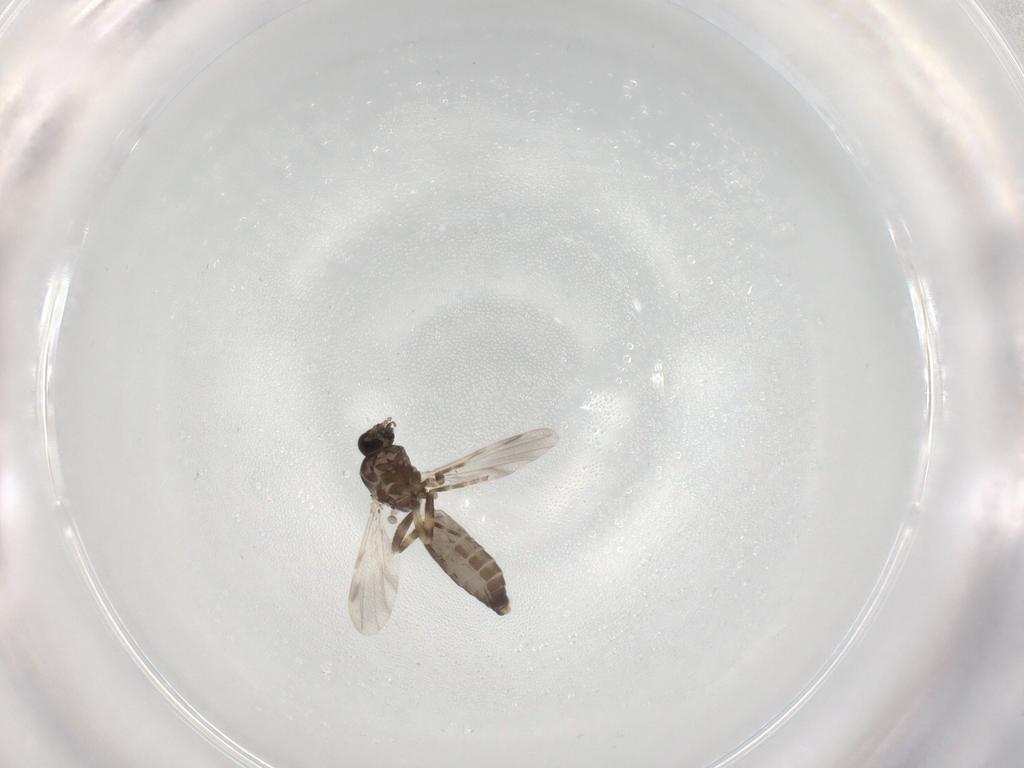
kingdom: Animalia
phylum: Arthropoda
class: Insecta
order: Diptera
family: Ceratopogonidae
